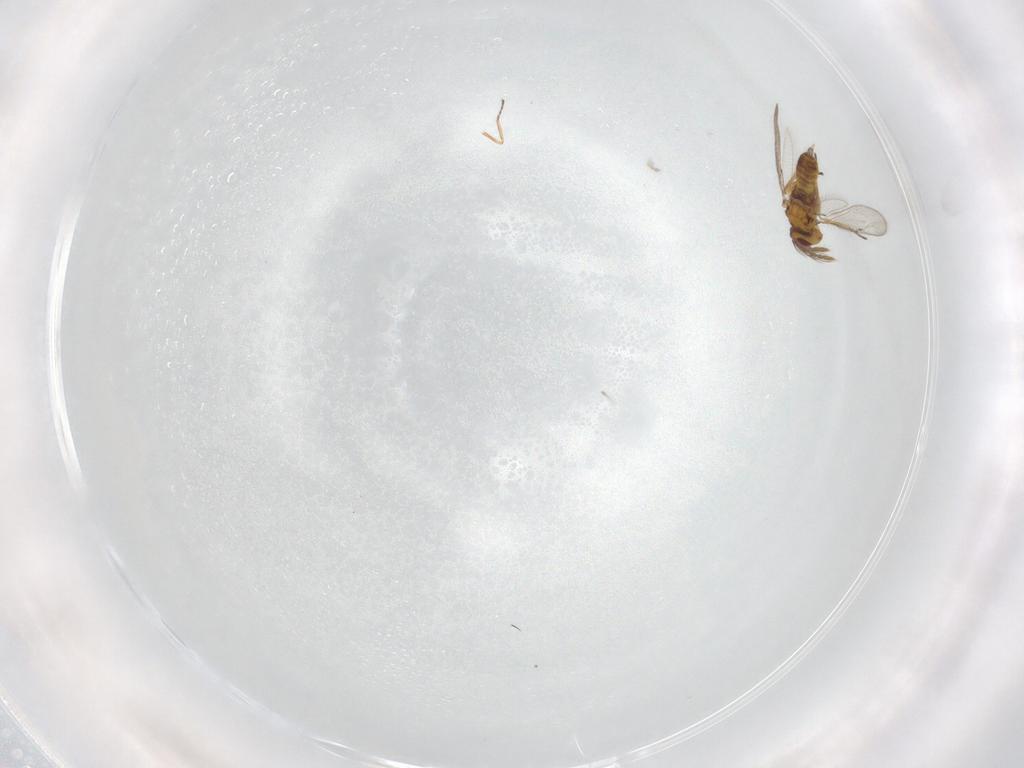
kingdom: Animalia
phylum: Arthropoda
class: Insecta
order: Hymenoptera
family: Eulophidae
